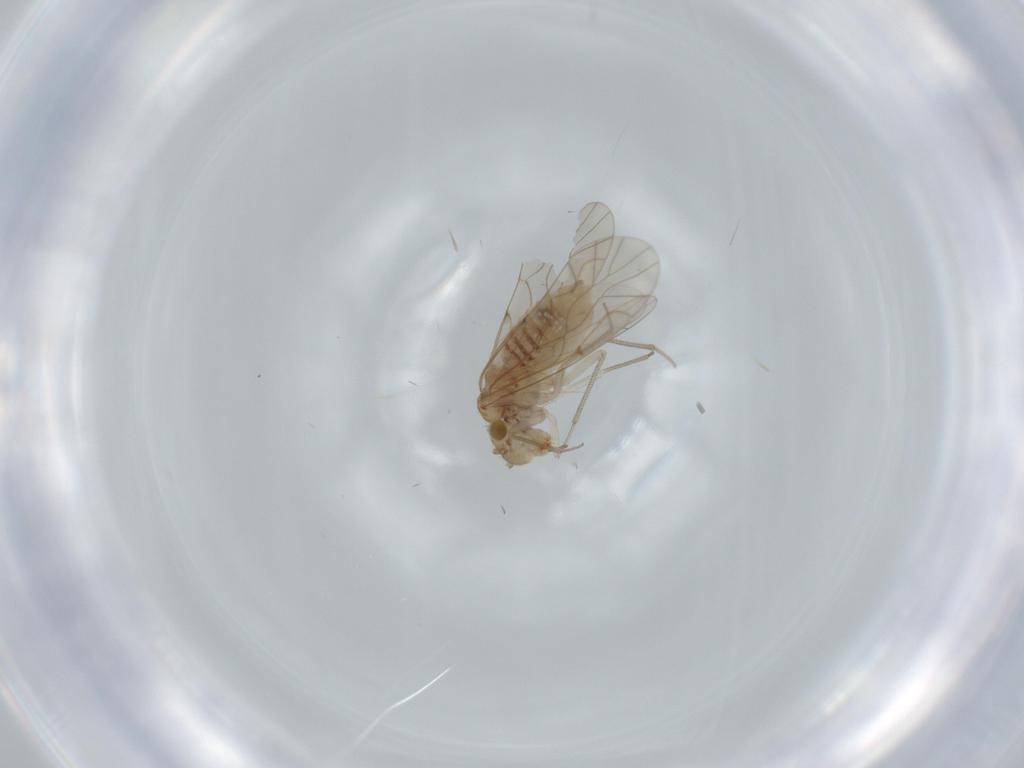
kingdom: Animalia
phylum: Arthropoda
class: Insecta
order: Psocodea
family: Lachesillidae
